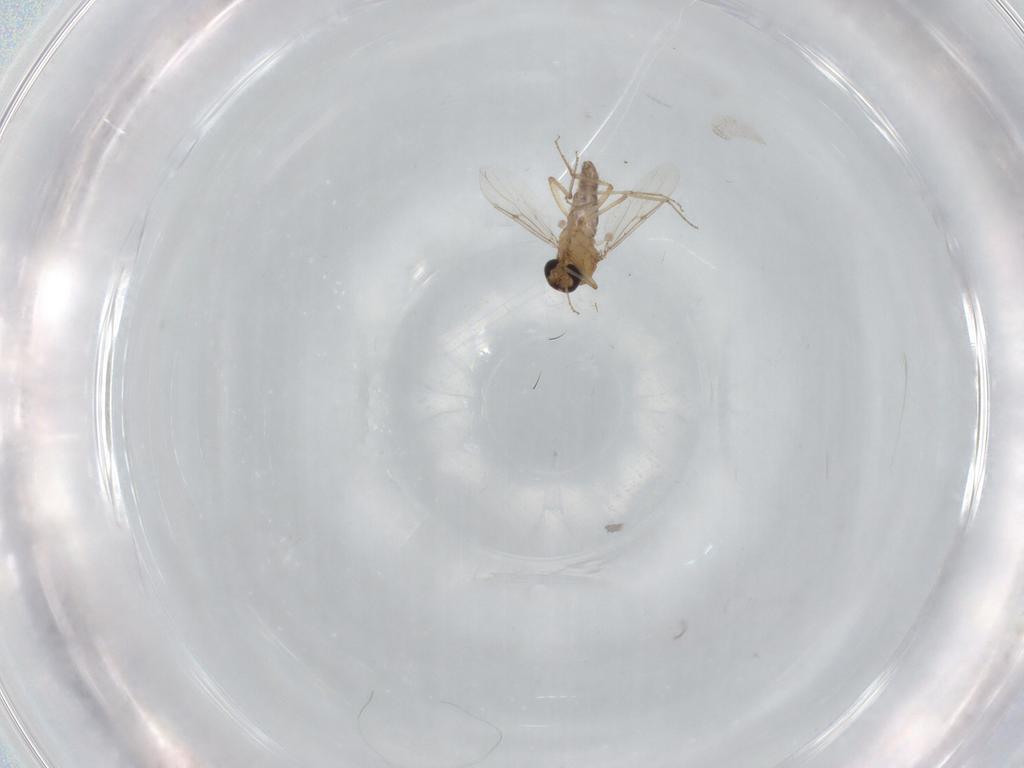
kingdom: Animalia
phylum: Arthropoda
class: Insecta
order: Diptera
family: Ceratopogonidae
